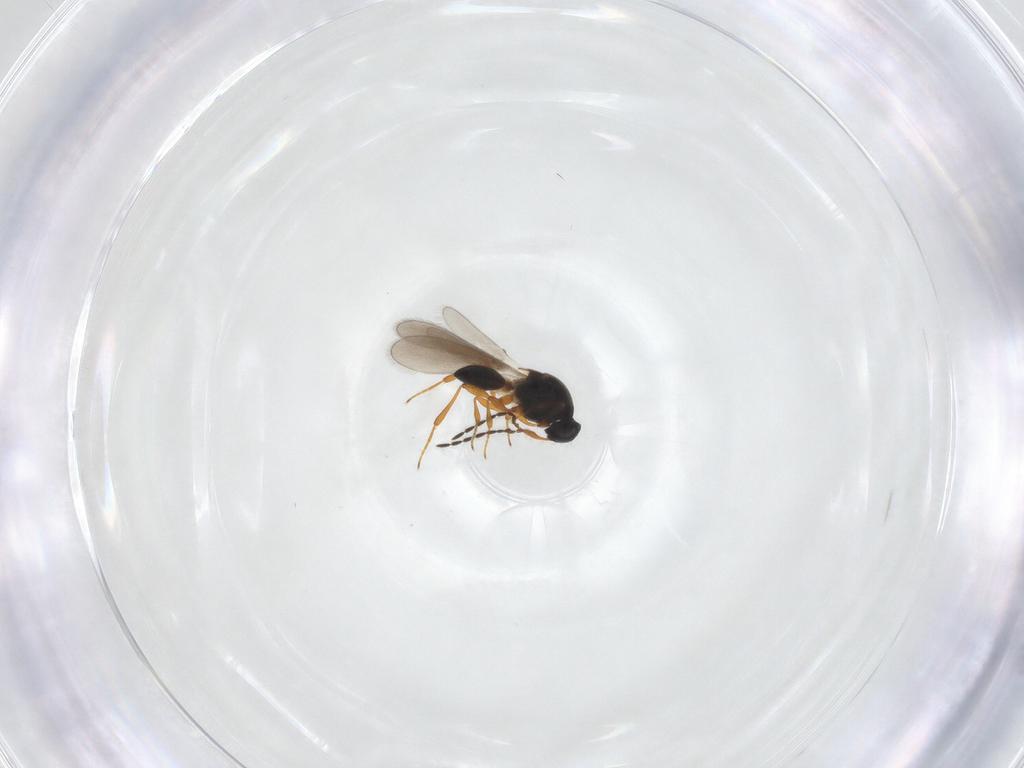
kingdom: Animalia
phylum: Arthropoda
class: Insecta
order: Hymenoptera
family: Platygastridae
